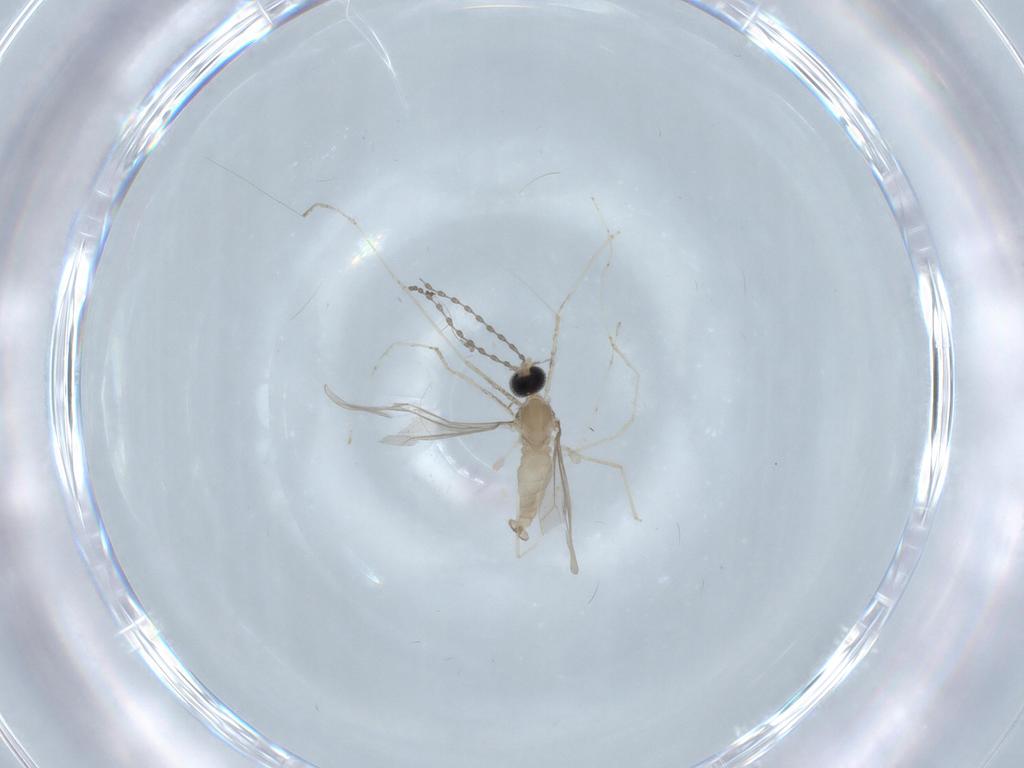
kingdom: Animalia
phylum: Arthropoda
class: Insecta
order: Diptera
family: Cecidomyiidae
